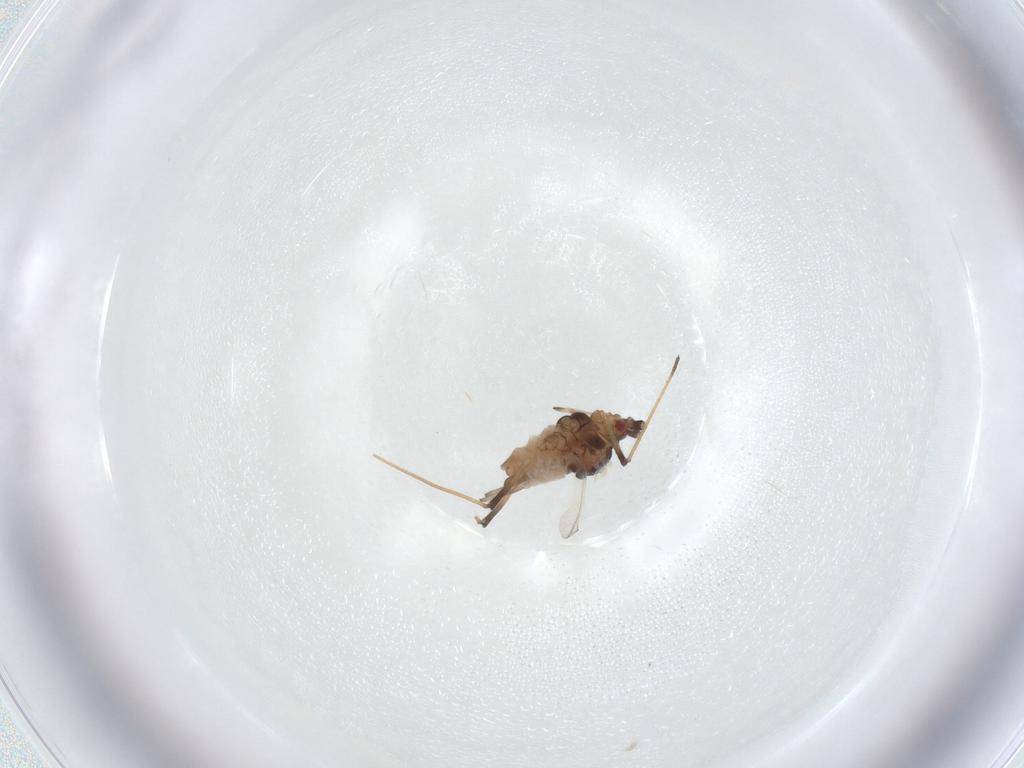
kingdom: Animalia
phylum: Arthropoda
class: Insecta
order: Hemiptera
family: Aphididae
